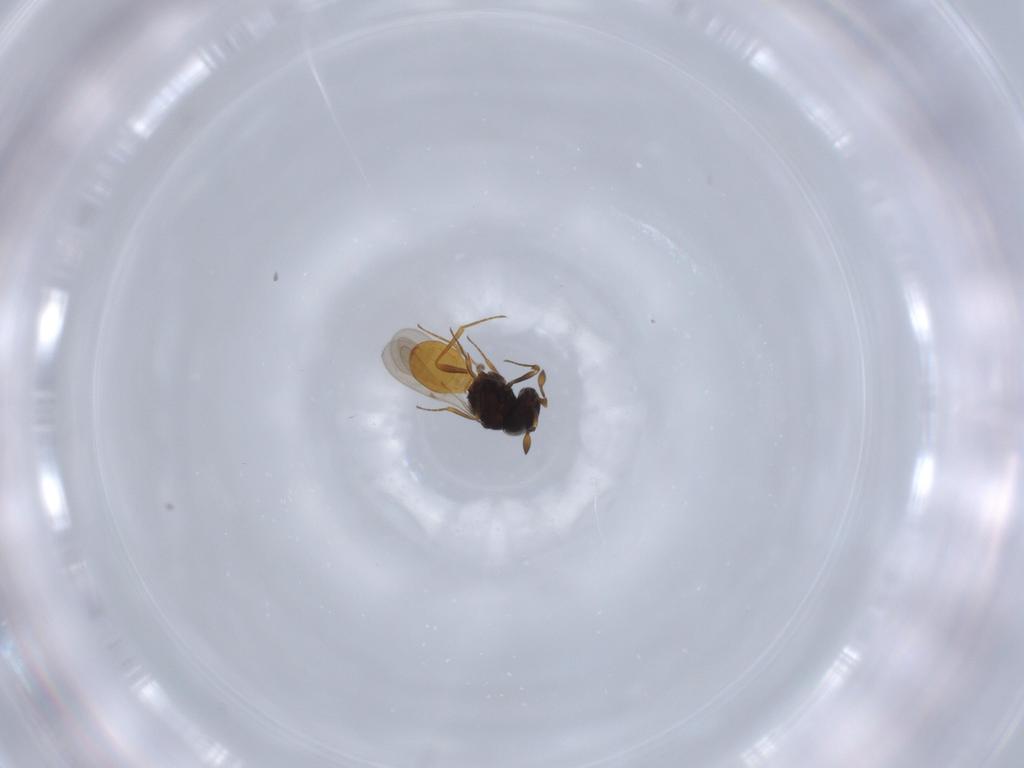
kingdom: Animalia
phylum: Arthropoda
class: Insecta
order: Hymenoptera
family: Scelionidae
